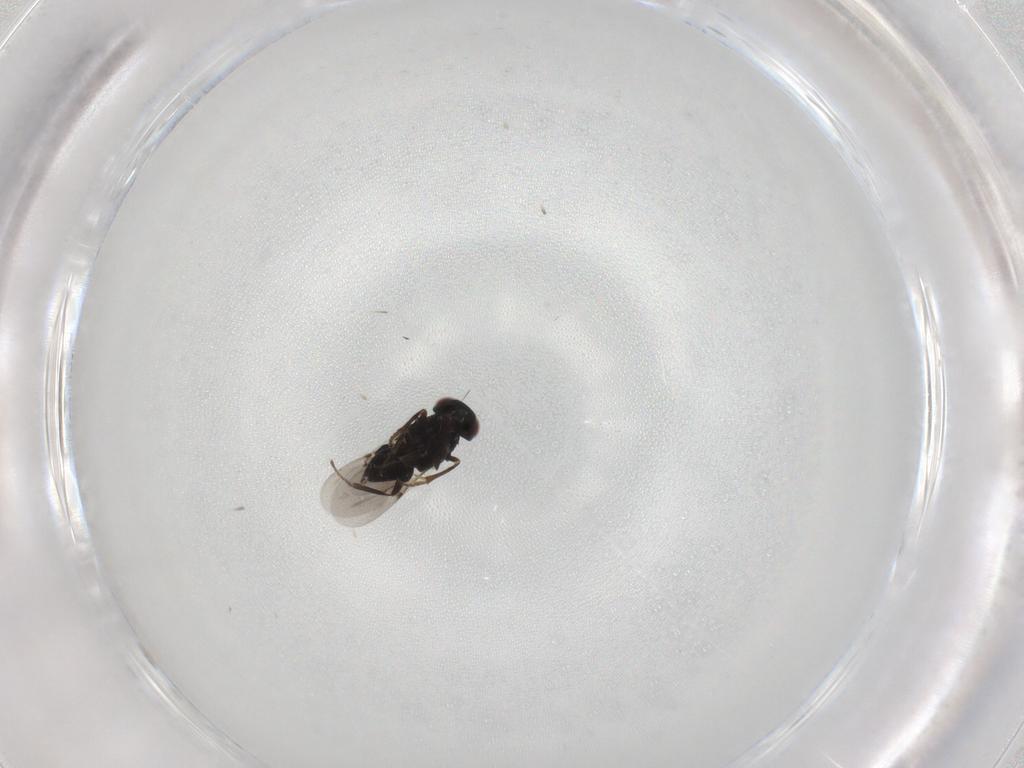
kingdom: Animalia
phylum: Arthropoda
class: Insecta
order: Hymenoptera
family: Encyrtidae
